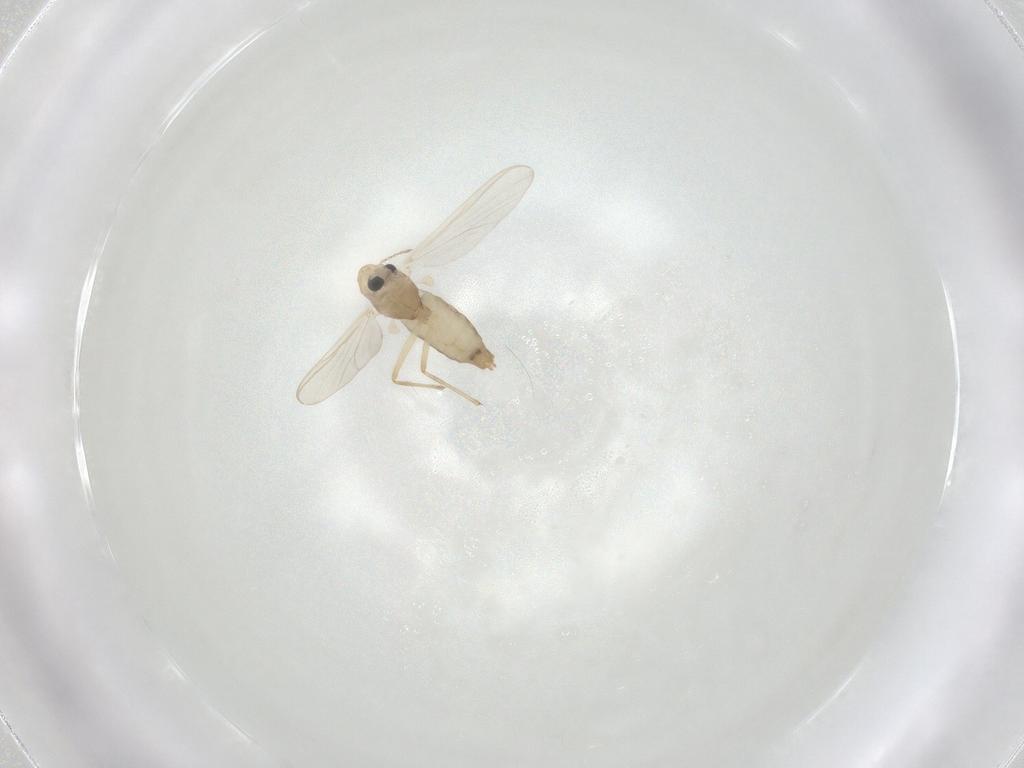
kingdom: Animalia
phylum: Arthropoda
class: Insecta
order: Diptera
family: Chironomidae
